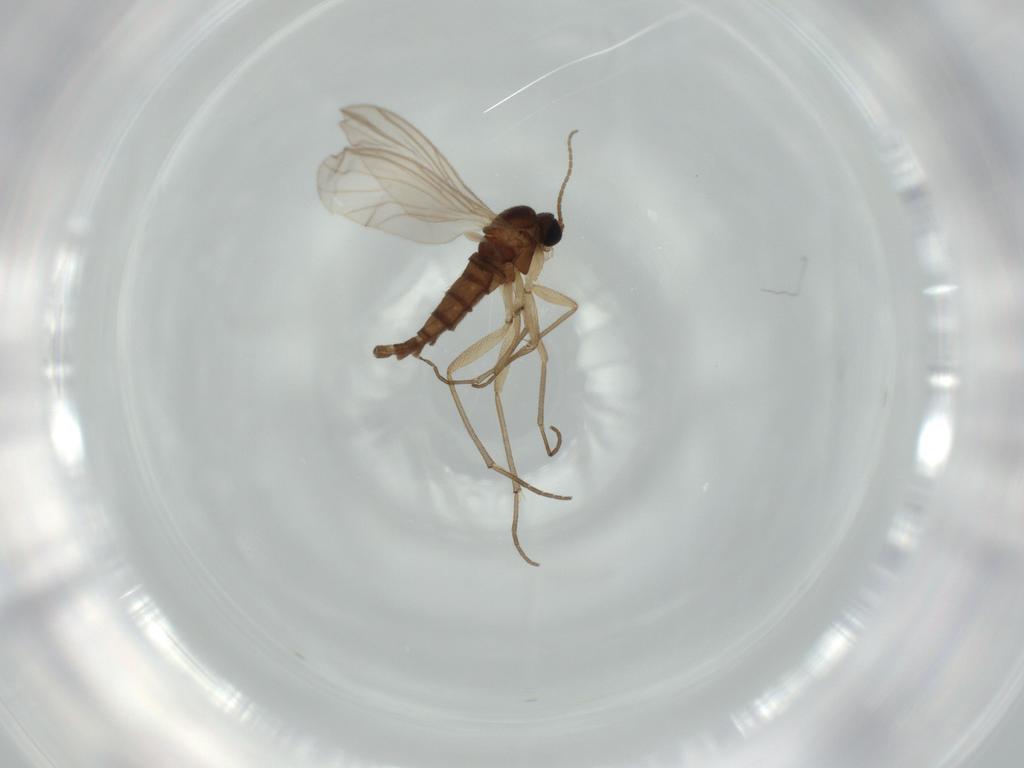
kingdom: Animalia
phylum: Arthropoda
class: Insecta
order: Diptera
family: Sciaridae
